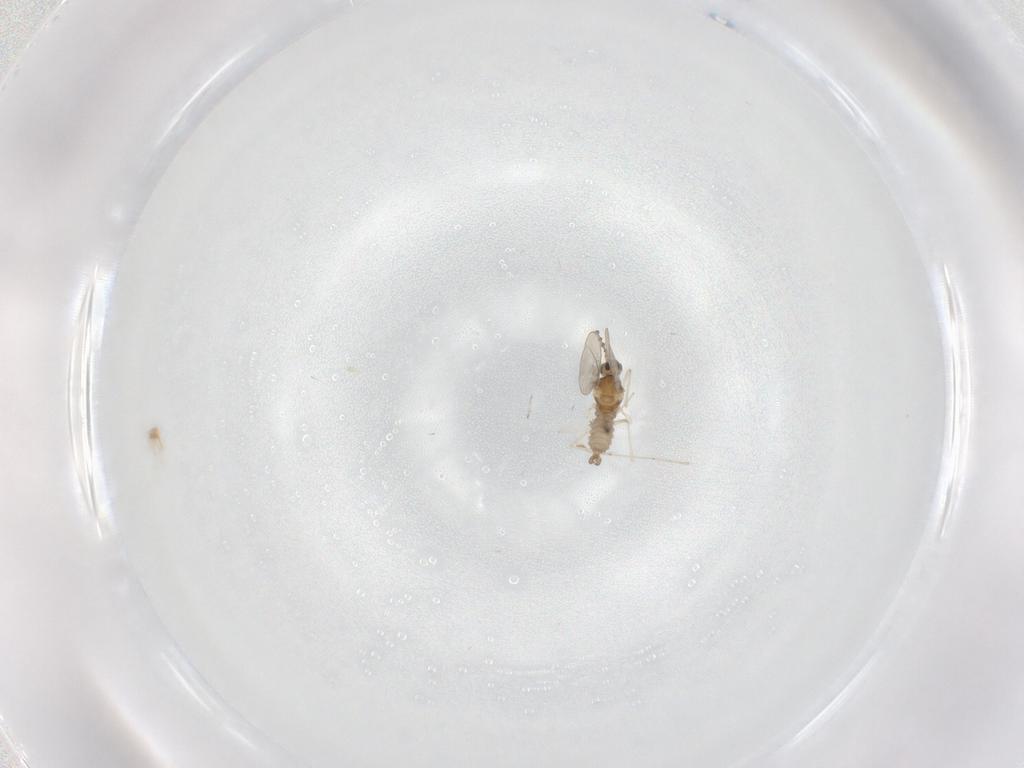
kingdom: Animalia
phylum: Arthropoda
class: Insecta
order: Diptera
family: Cecidomyiidae
